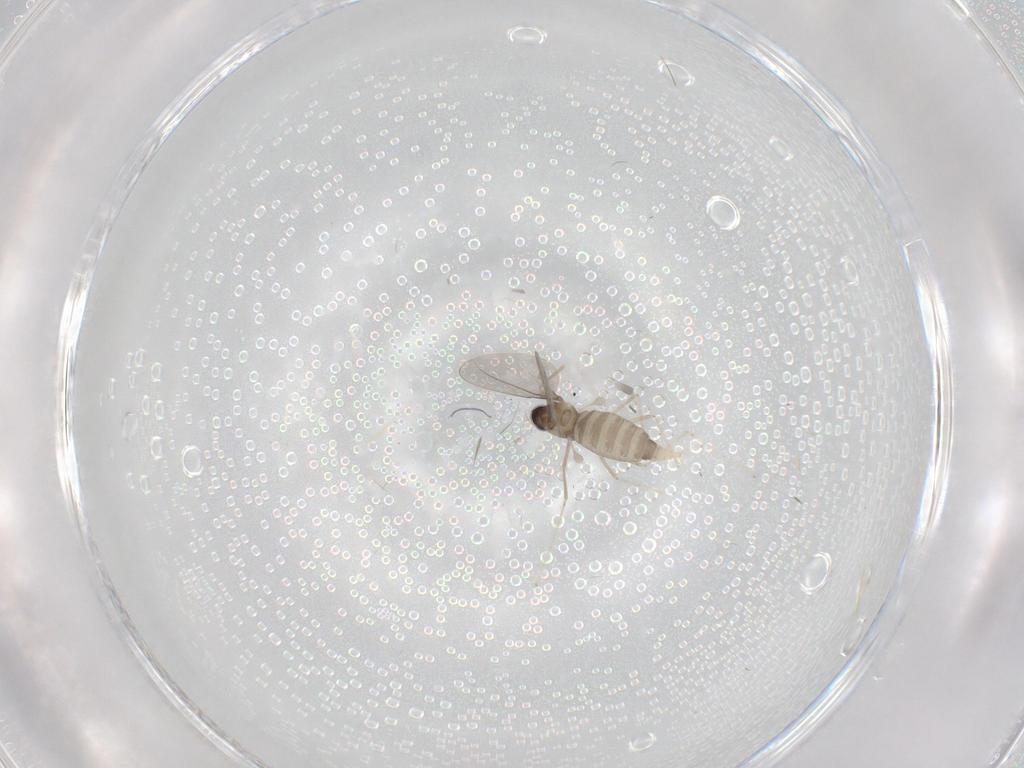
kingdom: Animalia
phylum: Arthropoda
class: Insecta
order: Diptera
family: Cecidomyiidae
